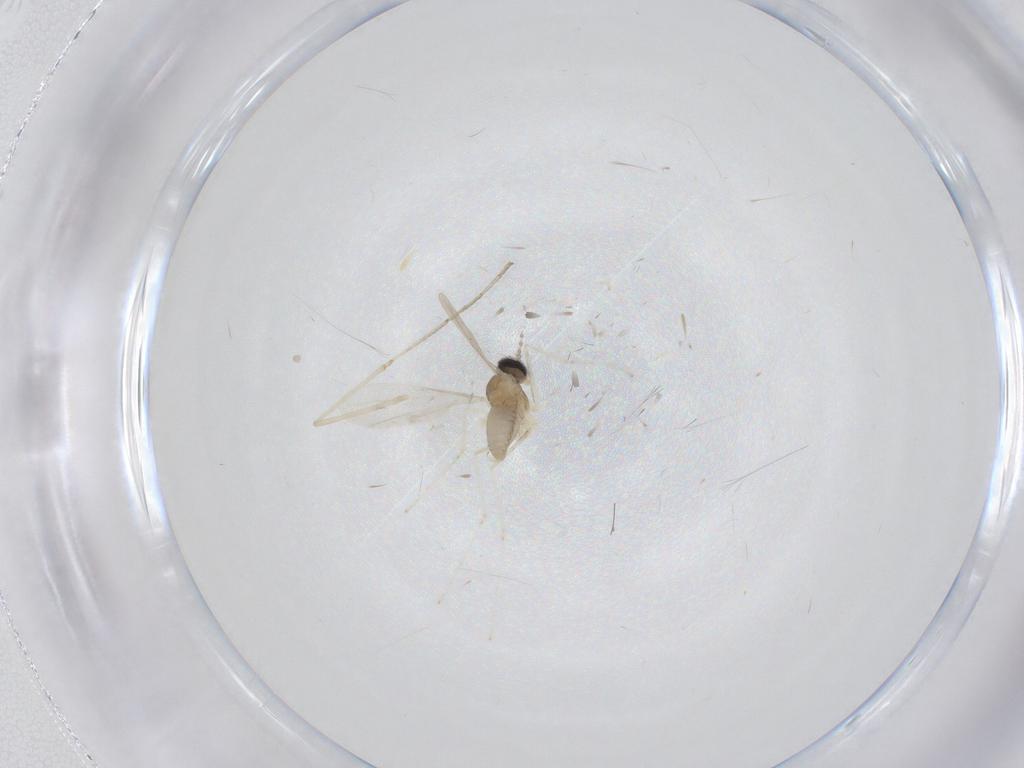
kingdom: Animalia
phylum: Arthropoda
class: Insecta
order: Diptera
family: Cecidomyiidae
